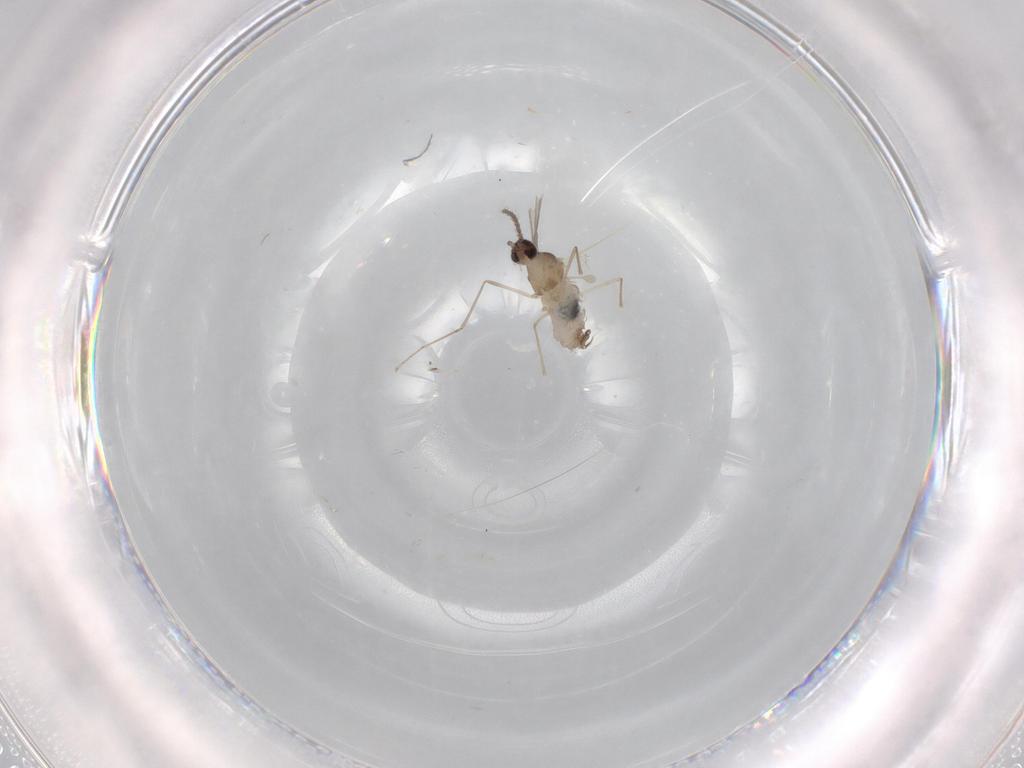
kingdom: Animalia
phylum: Arthropoda
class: Insecta
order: Diptera
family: Cecidomyiidae
